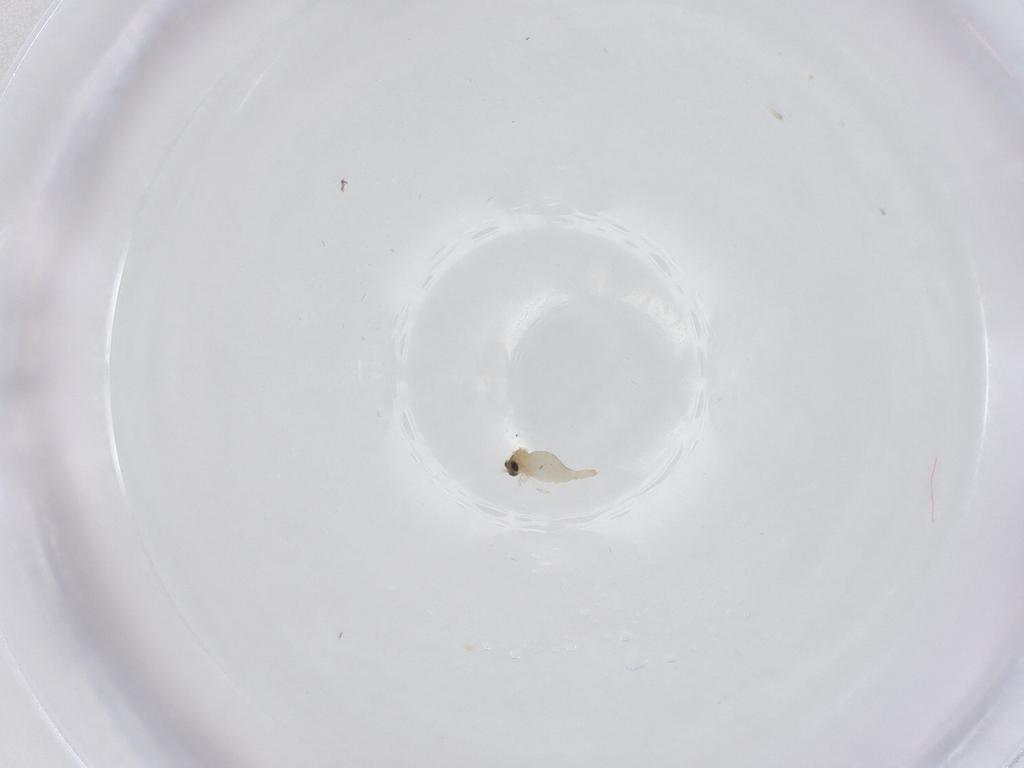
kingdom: Animalia
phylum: Arthropoda
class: Insecta
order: Diptera
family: Cecidomyiidae
